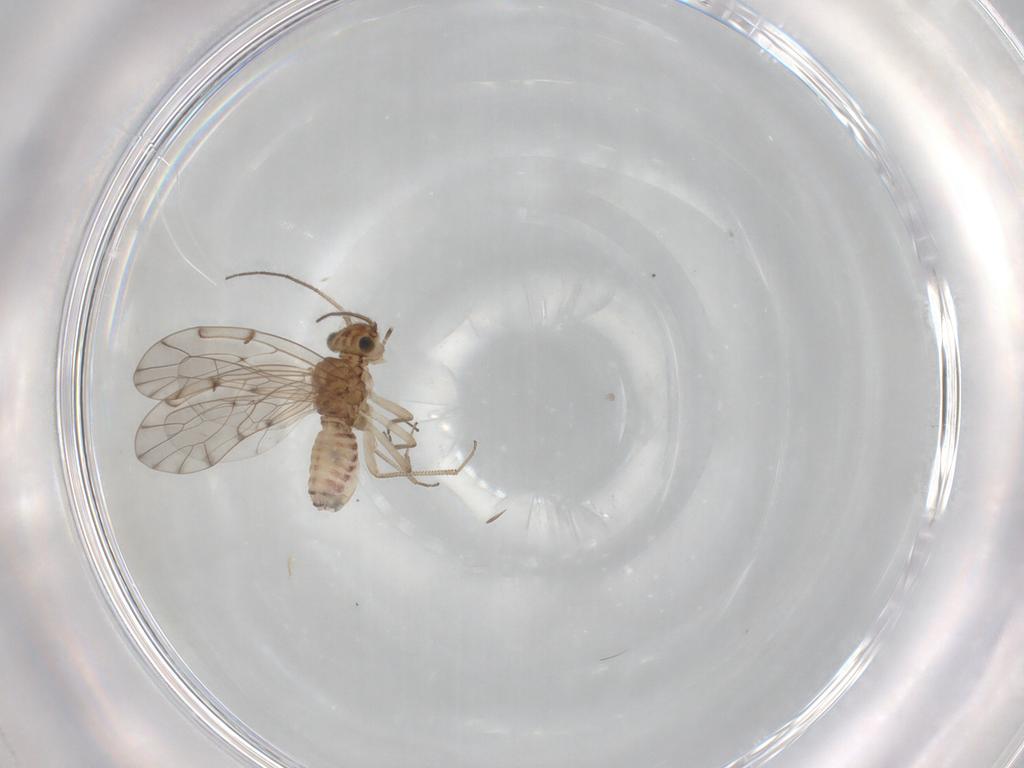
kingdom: Animalia
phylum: Arthropoda
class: Insecta
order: Psocodea
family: Ectopsocidae
